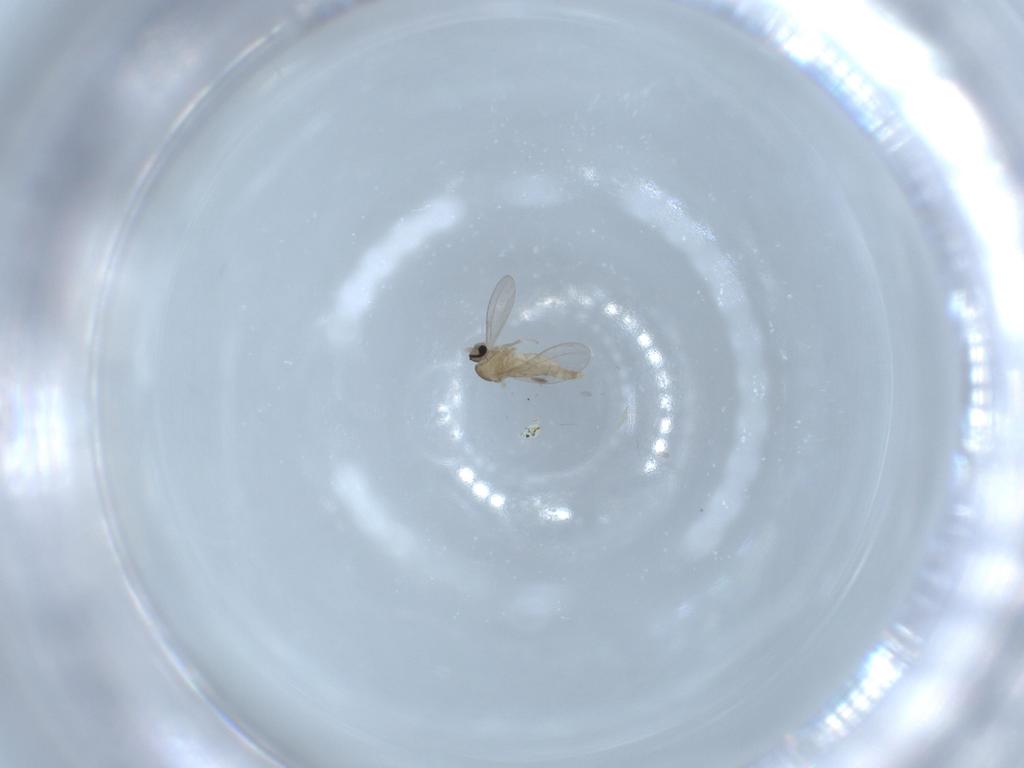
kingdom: Animalia
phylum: Arthropoda
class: Insecta
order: Diptera
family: Cecidomyiidae
